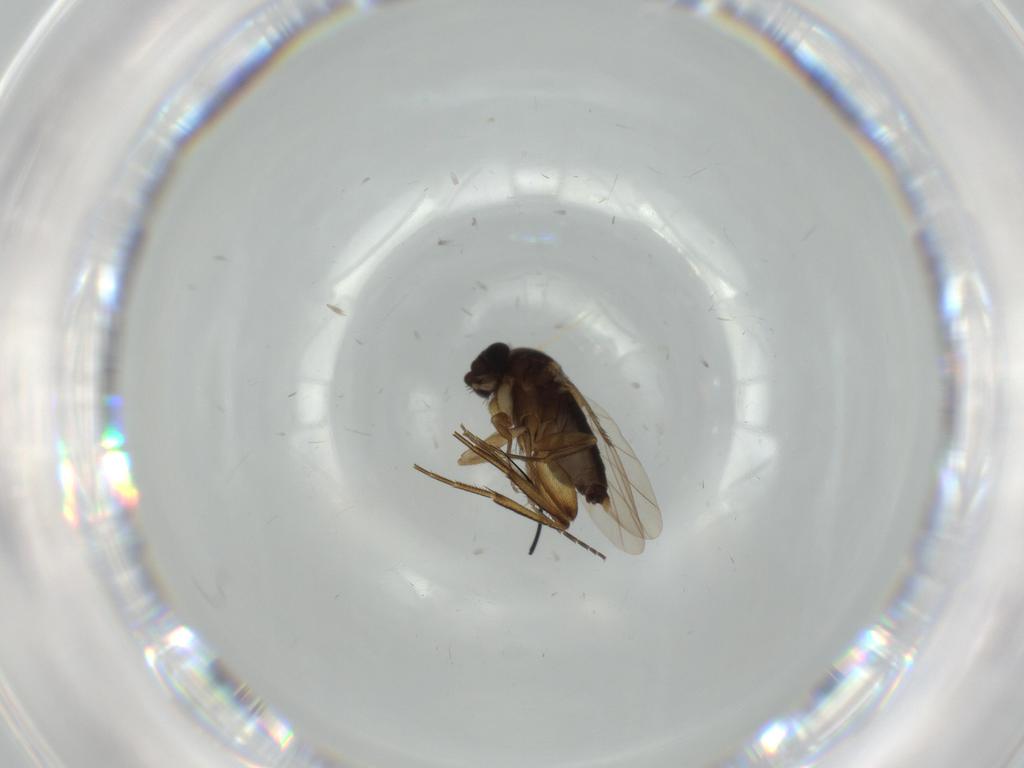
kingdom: Animalia
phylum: Arthropoda
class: Insecta
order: Diptera
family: Phoridae
